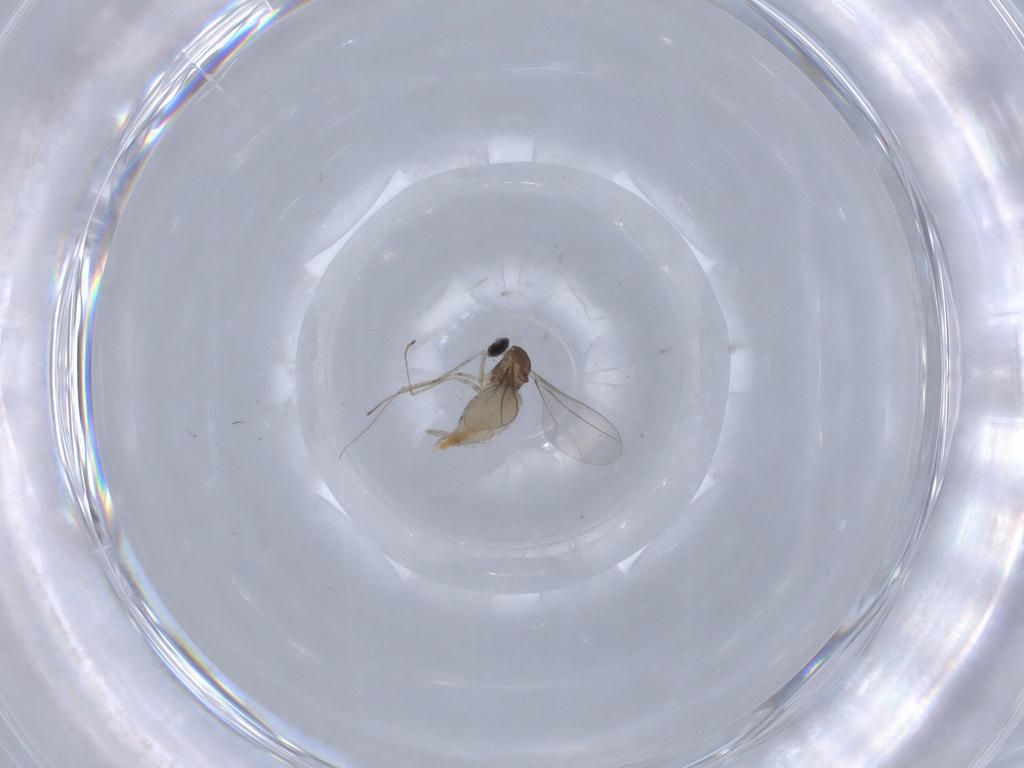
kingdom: Animalia
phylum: Arthropoda
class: Insecta
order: Diptera
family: Cecidomyiidae
